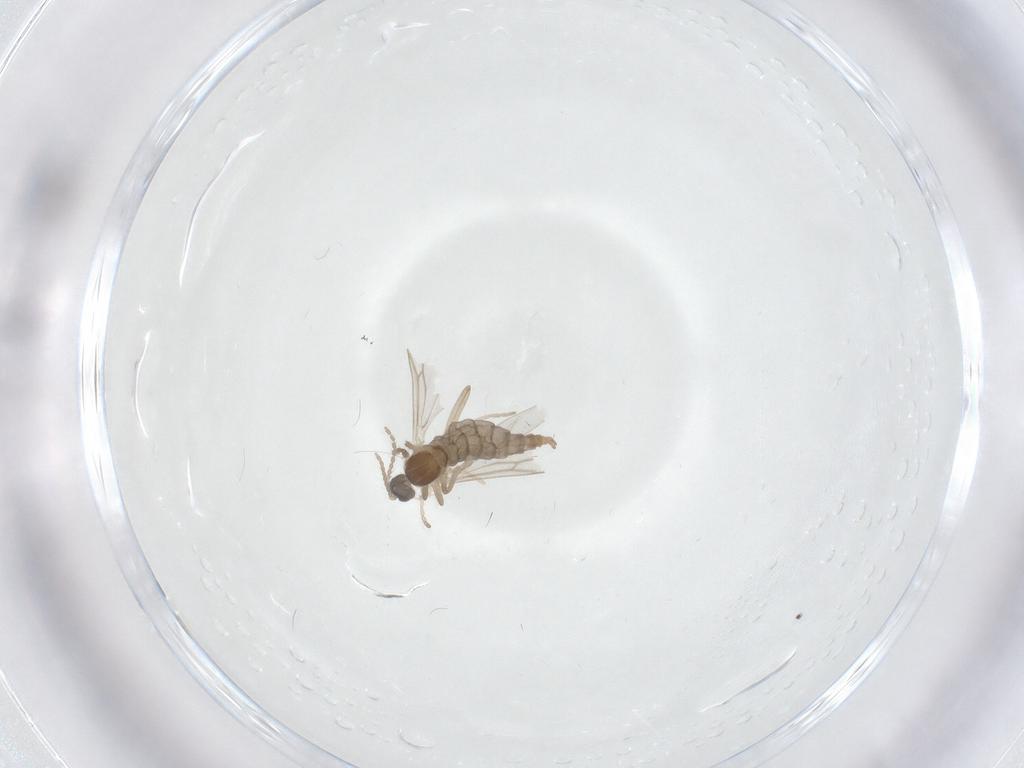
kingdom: Animalia
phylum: Arthropoda
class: Insecta
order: Diptera
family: Cecidomyiidae
